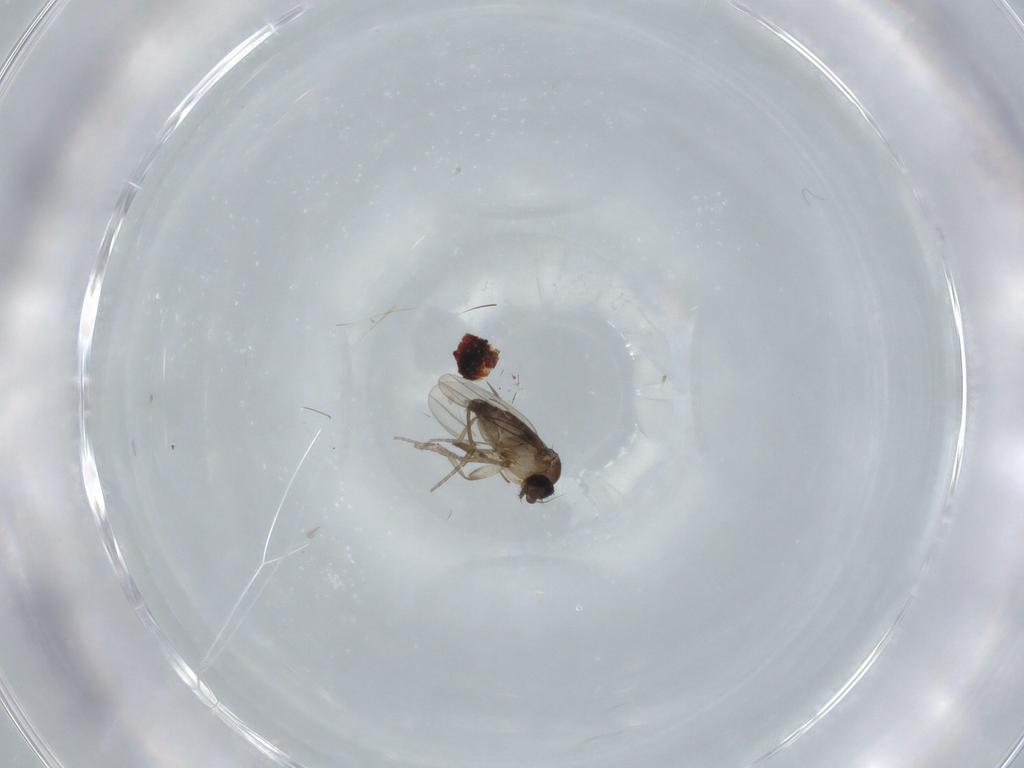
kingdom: Animalia
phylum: Arthropoda
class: Insecta
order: Diptera
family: Phoridae
